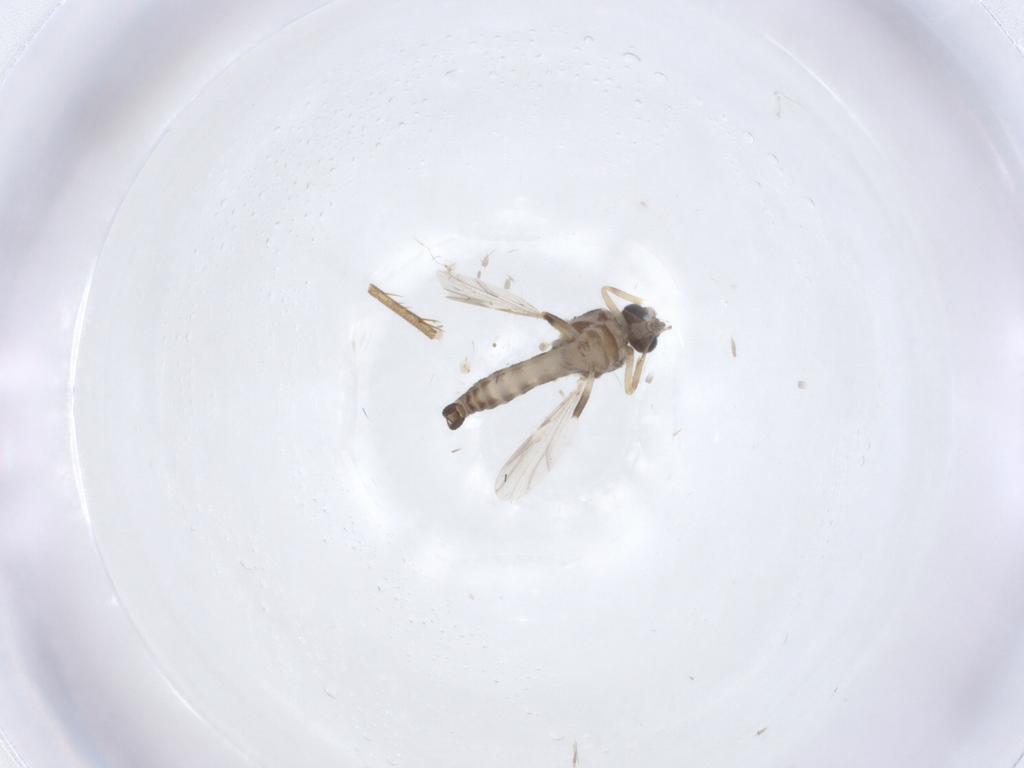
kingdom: Animalia
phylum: Arthropoda
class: Insecta
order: Diptera
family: Ceratopogonidae
